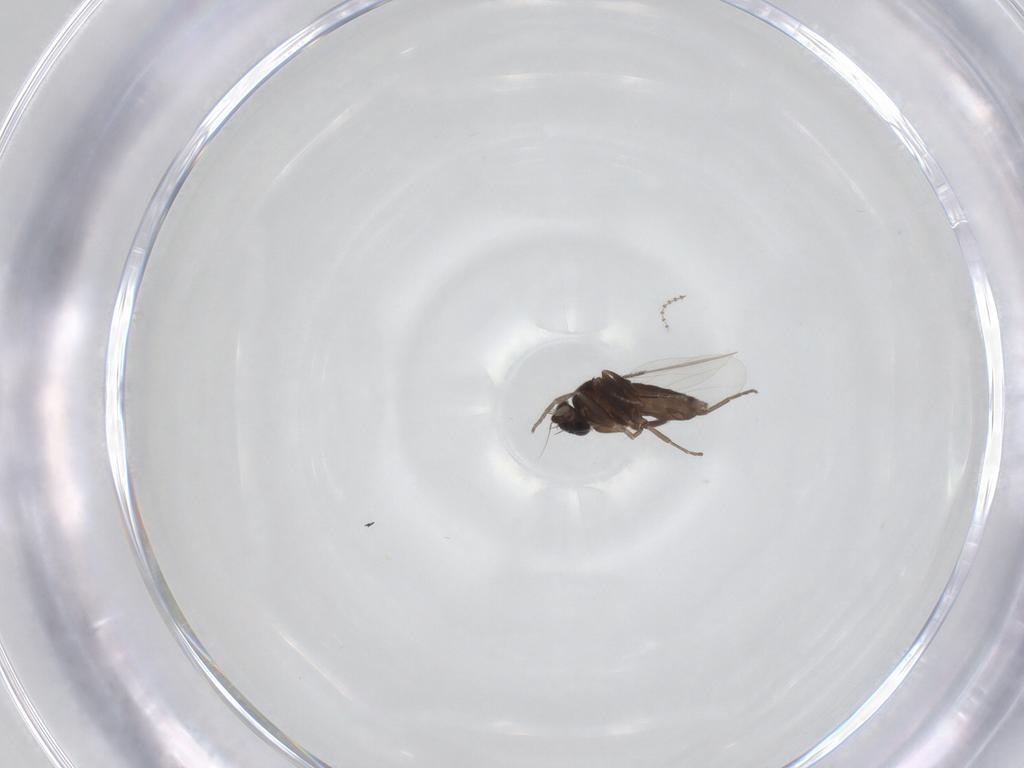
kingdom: Animalia
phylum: Arthropoda
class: Insecta
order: Diptera
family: Phoridae
